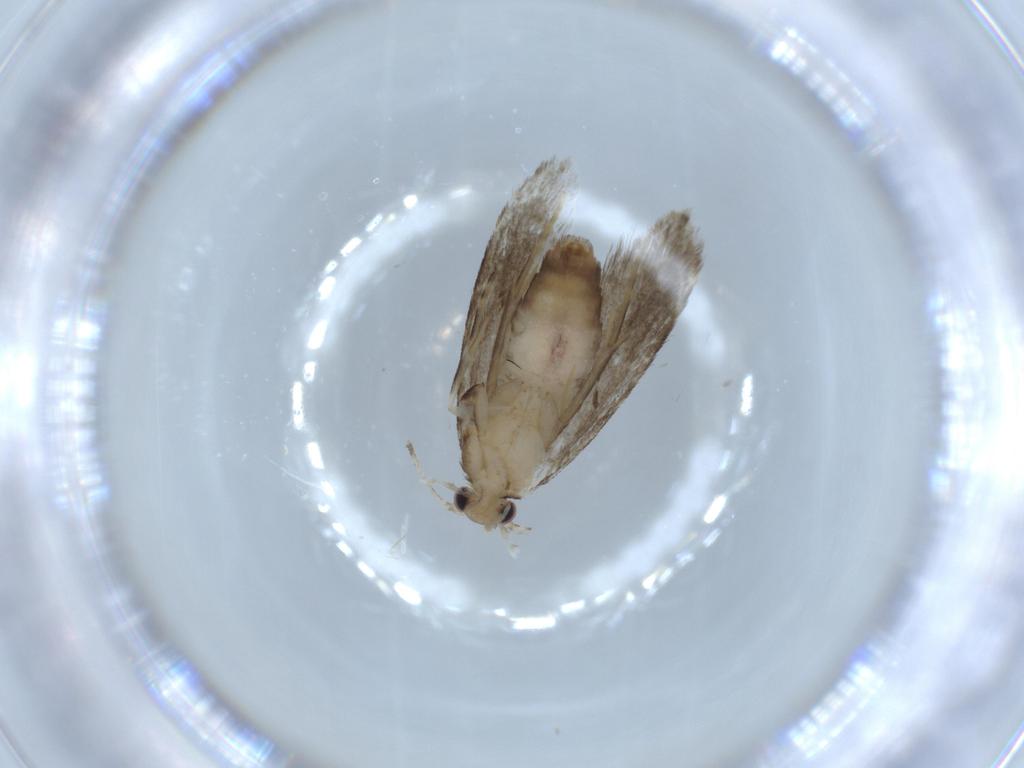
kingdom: Animalia
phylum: Arthropoda
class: Insecta
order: Lepidoptera
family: Tineidae
